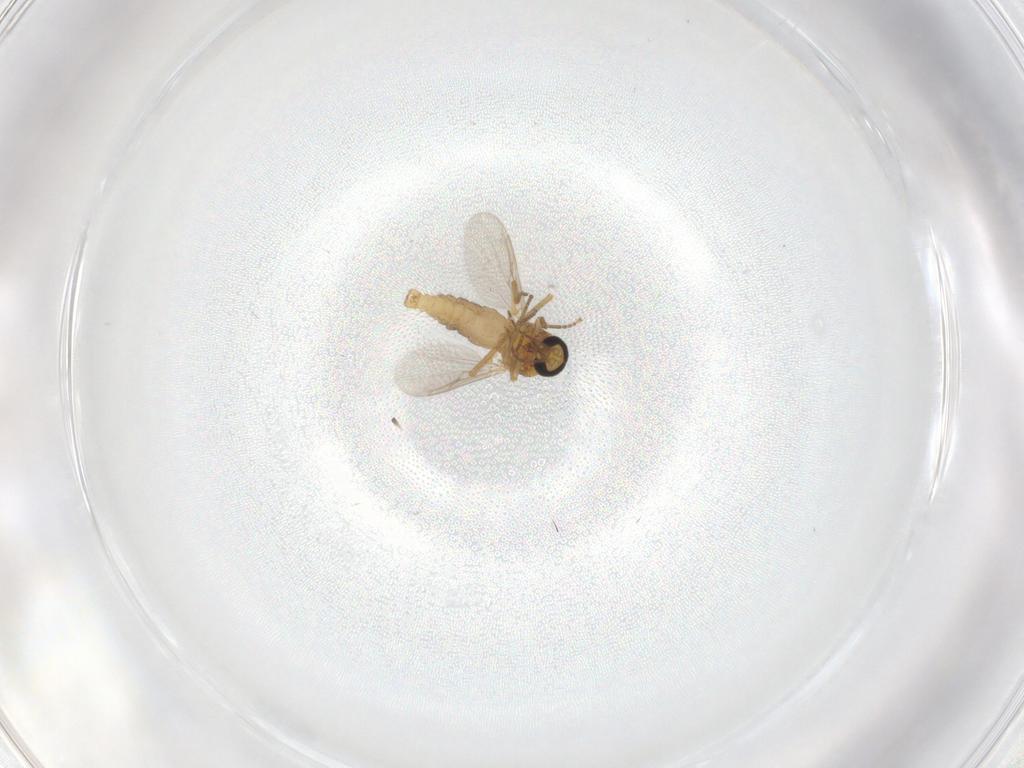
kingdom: Animalia
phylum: Arthropoda
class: Insecta
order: Diptera
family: Ceratopogonidae
